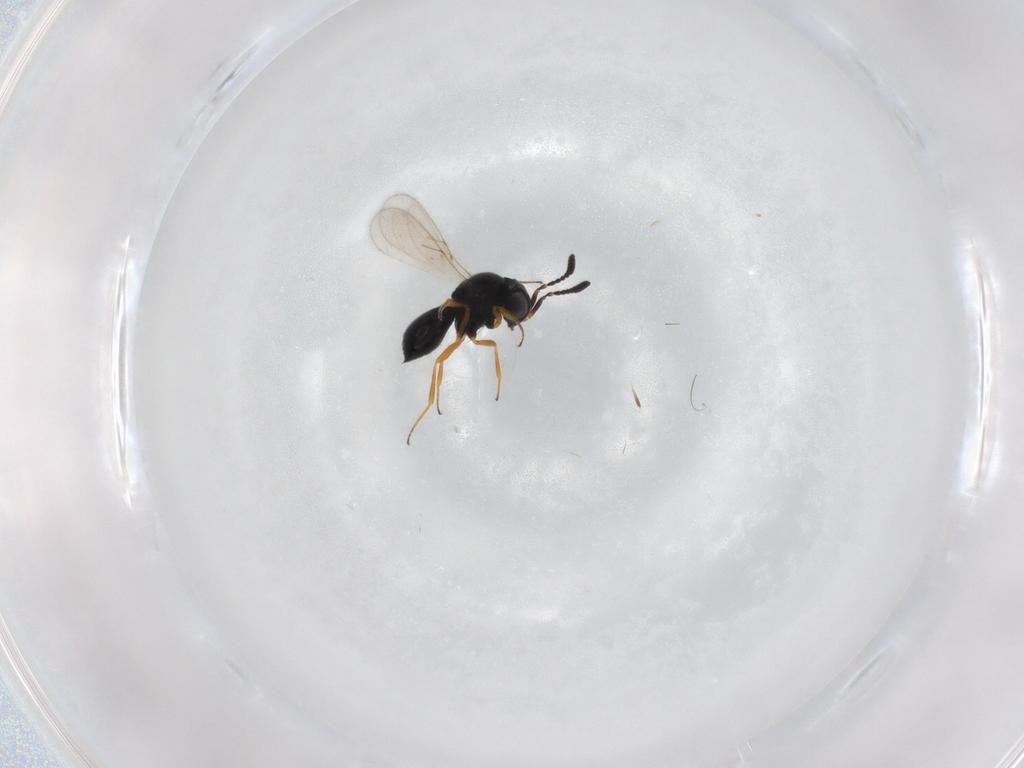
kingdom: Animalia
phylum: Arthropoda
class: Insecta
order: Hymenoptera
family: Scelionidae
